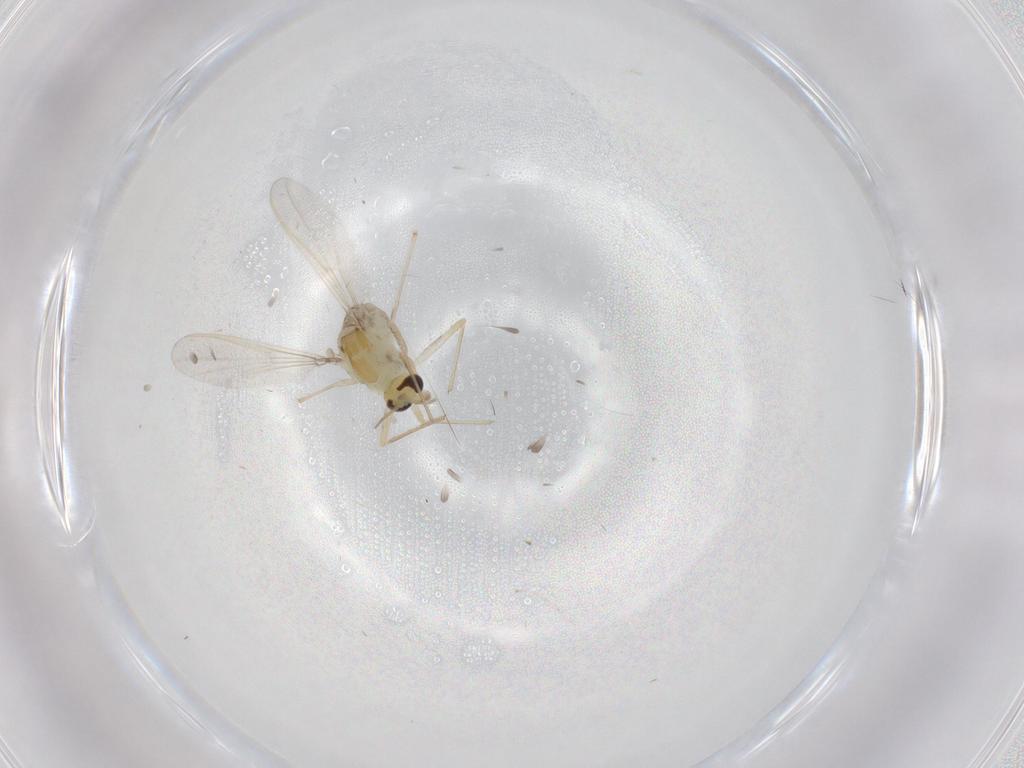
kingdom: Animalia
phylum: Arthropoda
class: Insecta
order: Diptera
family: Chironomidae
